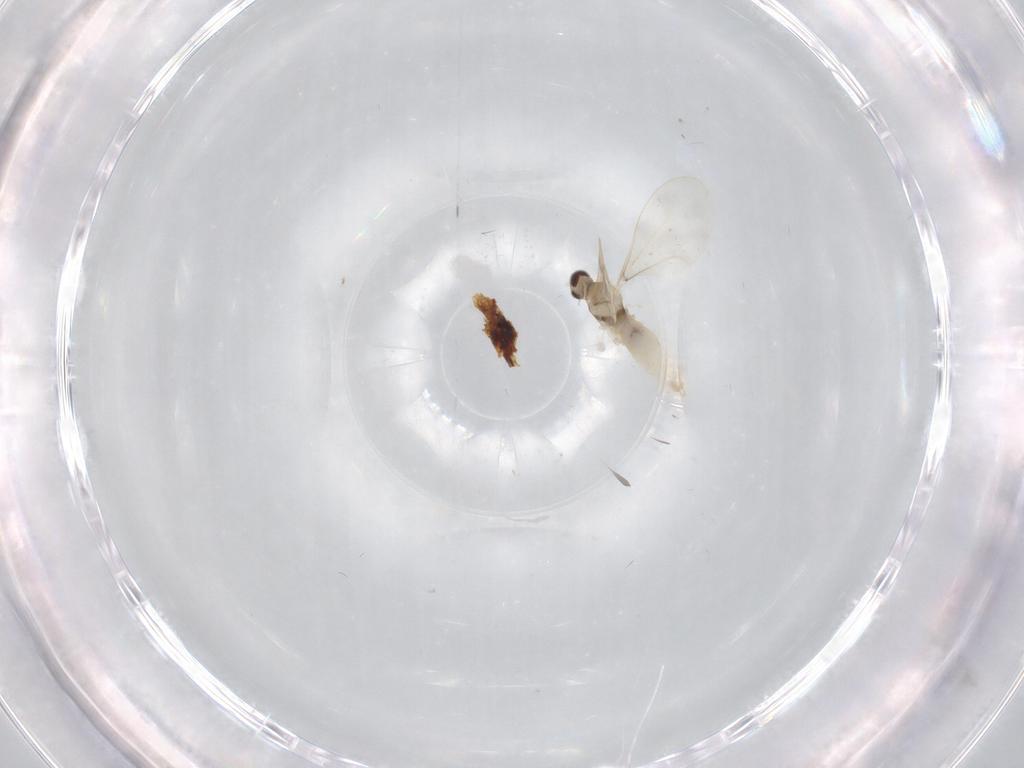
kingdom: Animalia
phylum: Arthropoda
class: Insecta
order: Diptera
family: Cecidomyiidae
